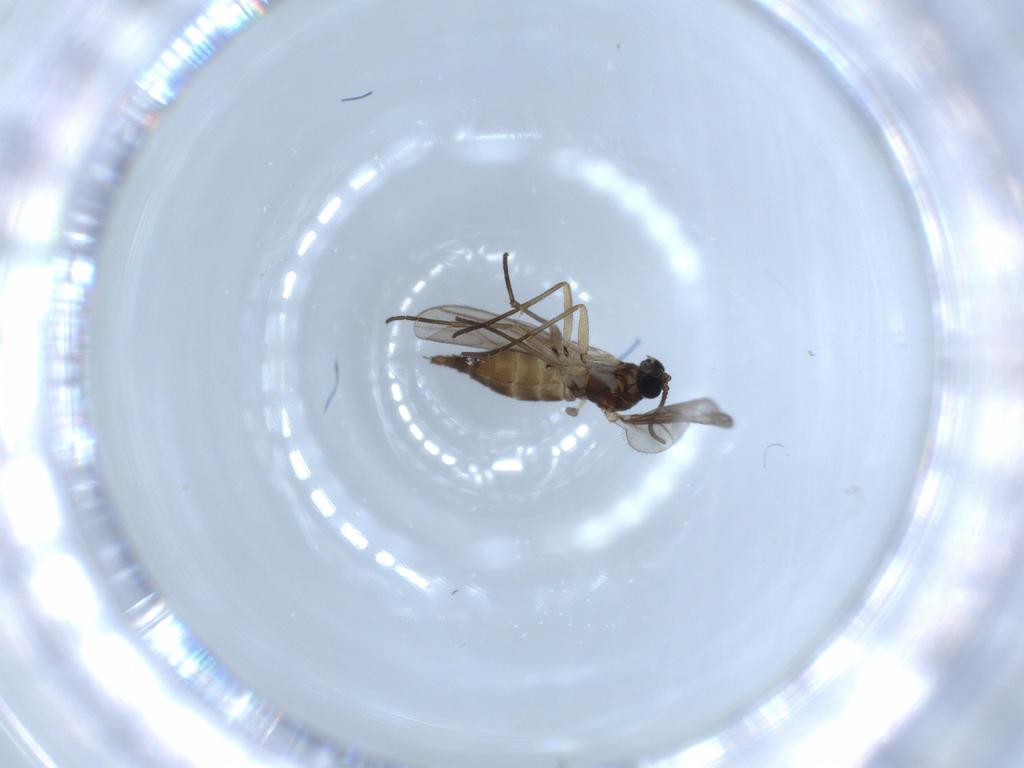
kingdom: Animalia
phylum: Arthropoda
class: Insecta
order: Diptera
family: Sciaridae
